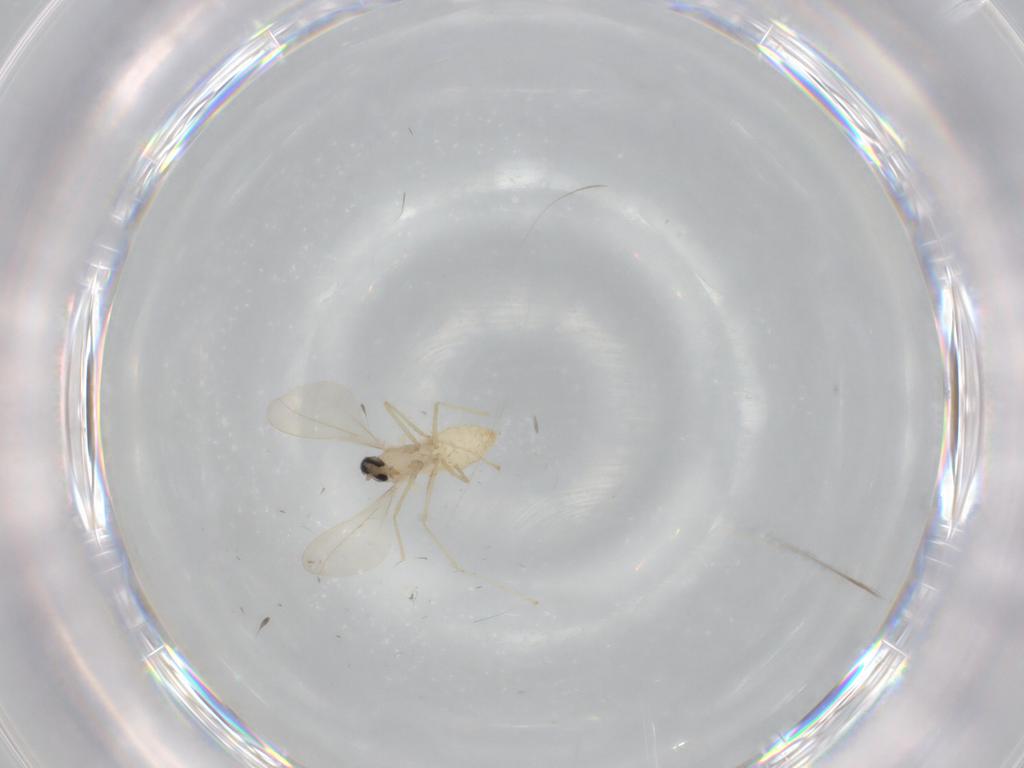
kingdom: Animalia
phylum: Arthropoda
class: Insecta
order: Diptera
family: Cecidomyiidae
